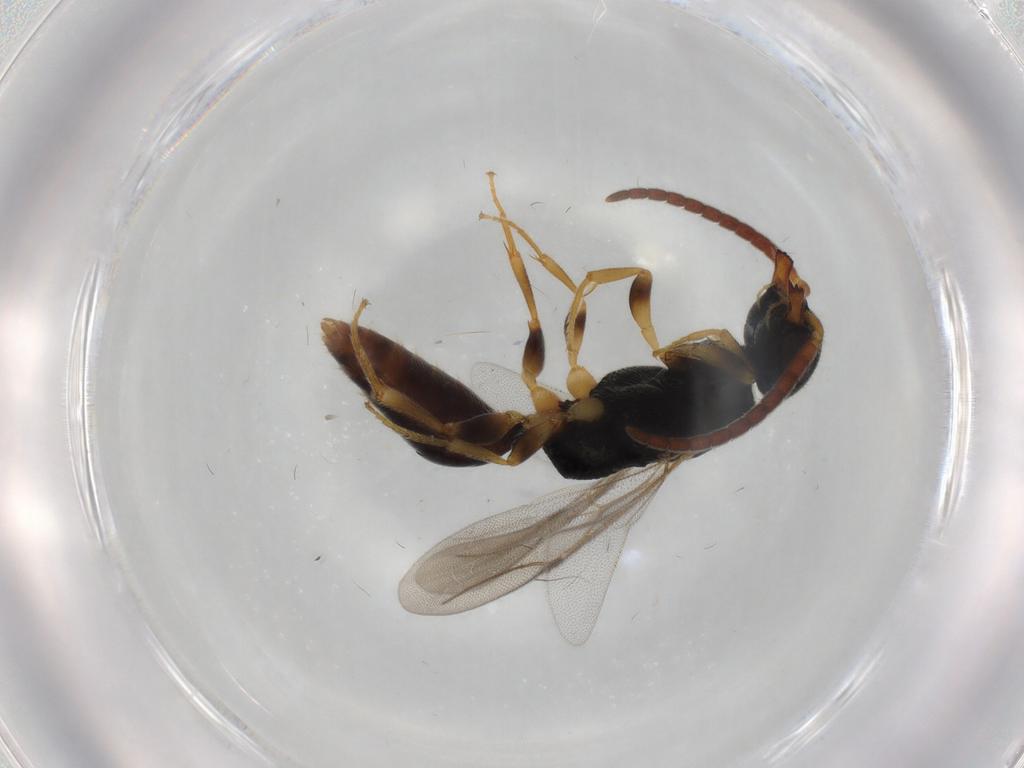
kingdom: Animalia
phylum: Arthropoda
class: Insecta
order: Hymenoptera
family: Bethylidae
